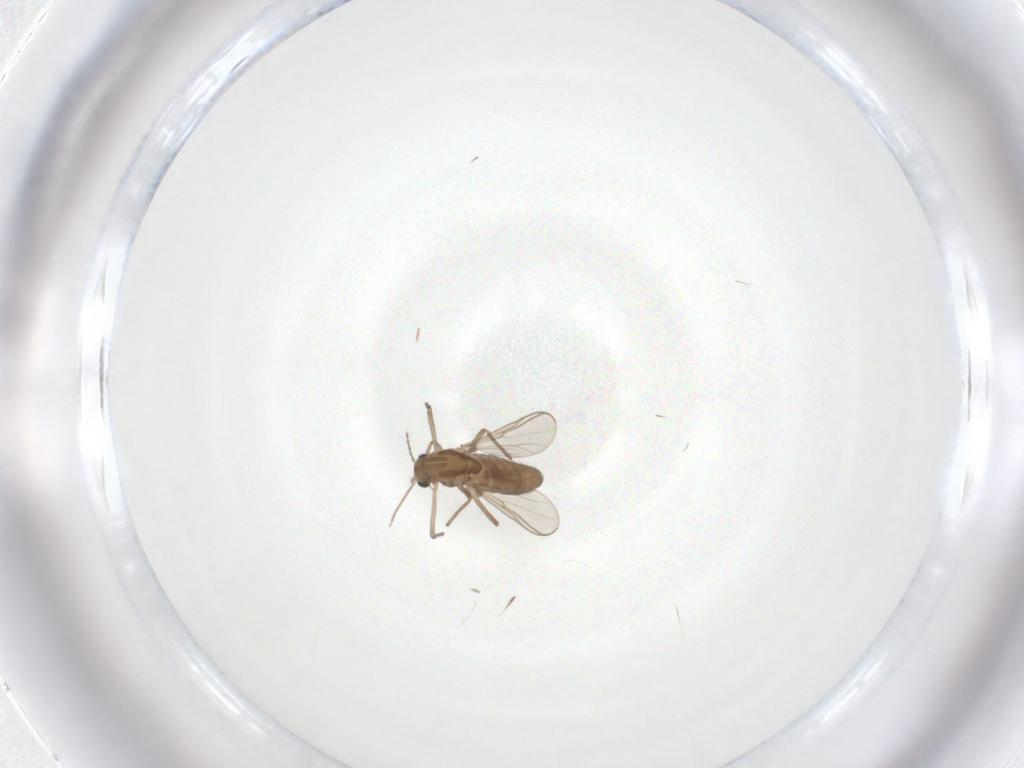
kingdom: Animalia
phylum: Arthropoda
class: Insecta
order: Diptera
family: Chironomidae
